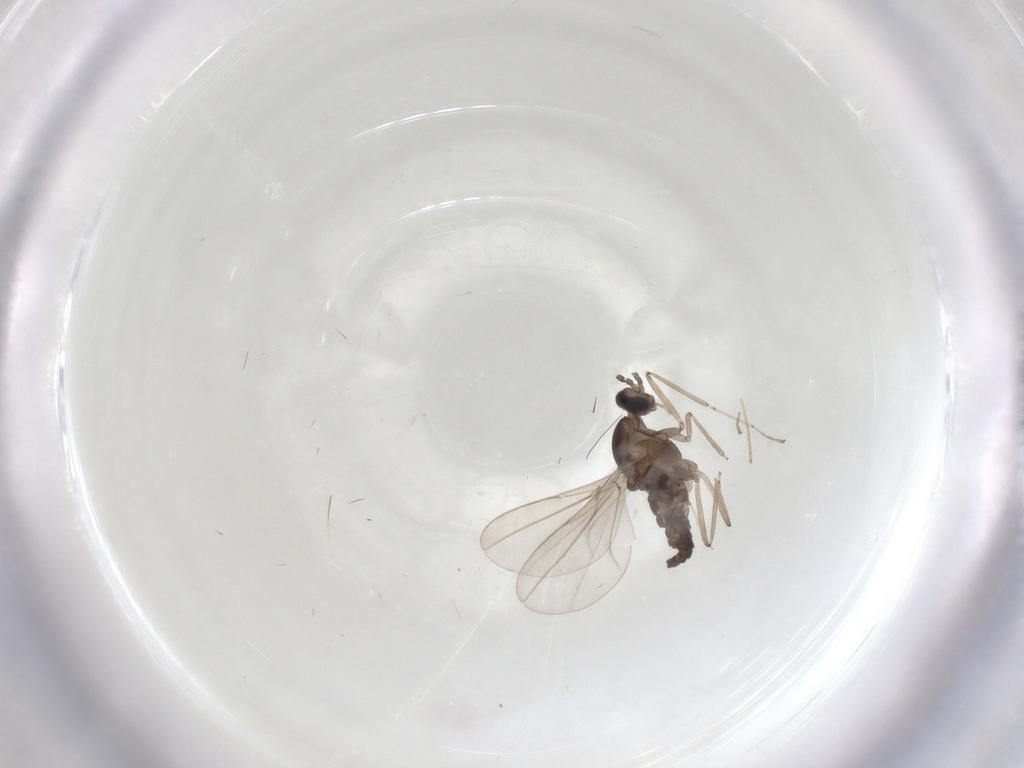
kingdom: Animalia
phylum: Arthropoda
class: Insecta
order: Diptera
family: Cecidomyiidae
